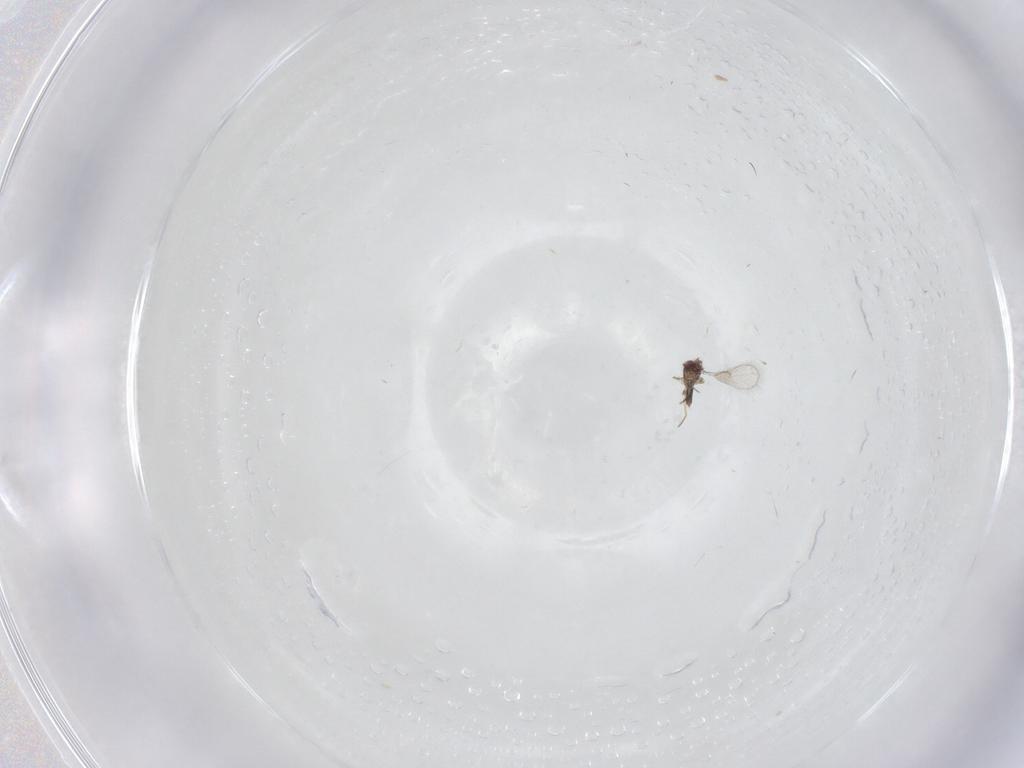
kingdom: Animalia
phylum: Arthropoda
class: Insecta
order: Hymenoptera
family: Trichogrammatidae
